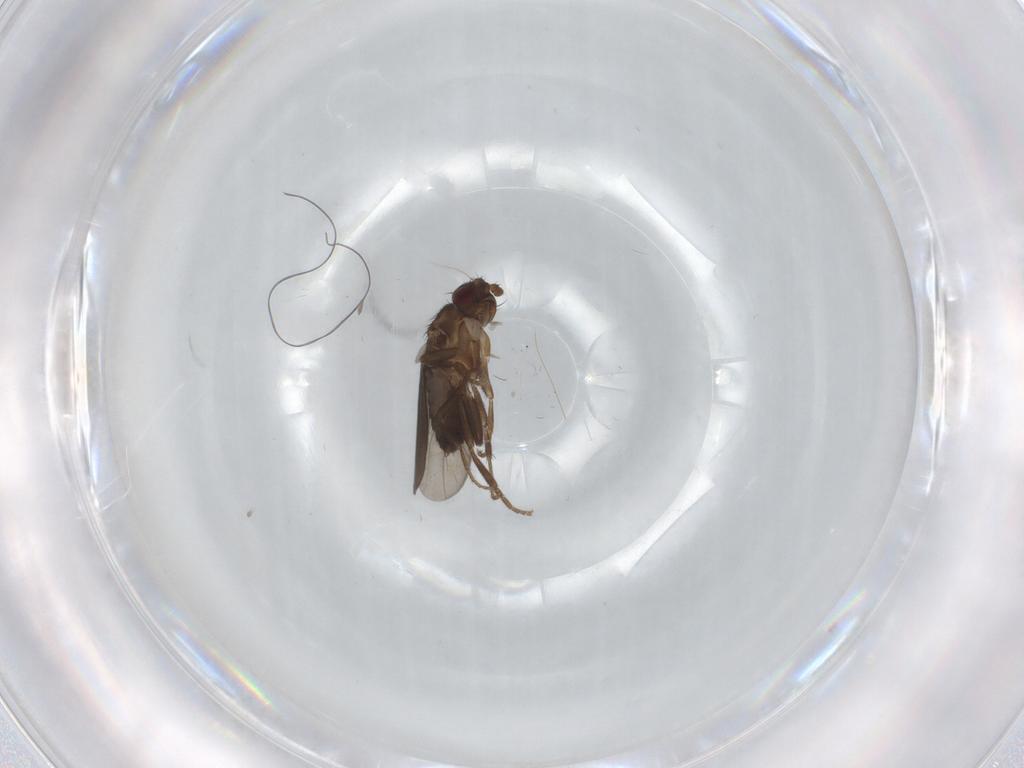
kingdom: Animalia
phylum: Arthropoda
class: Insecta
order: Diptera
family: Sphaeroceridae
